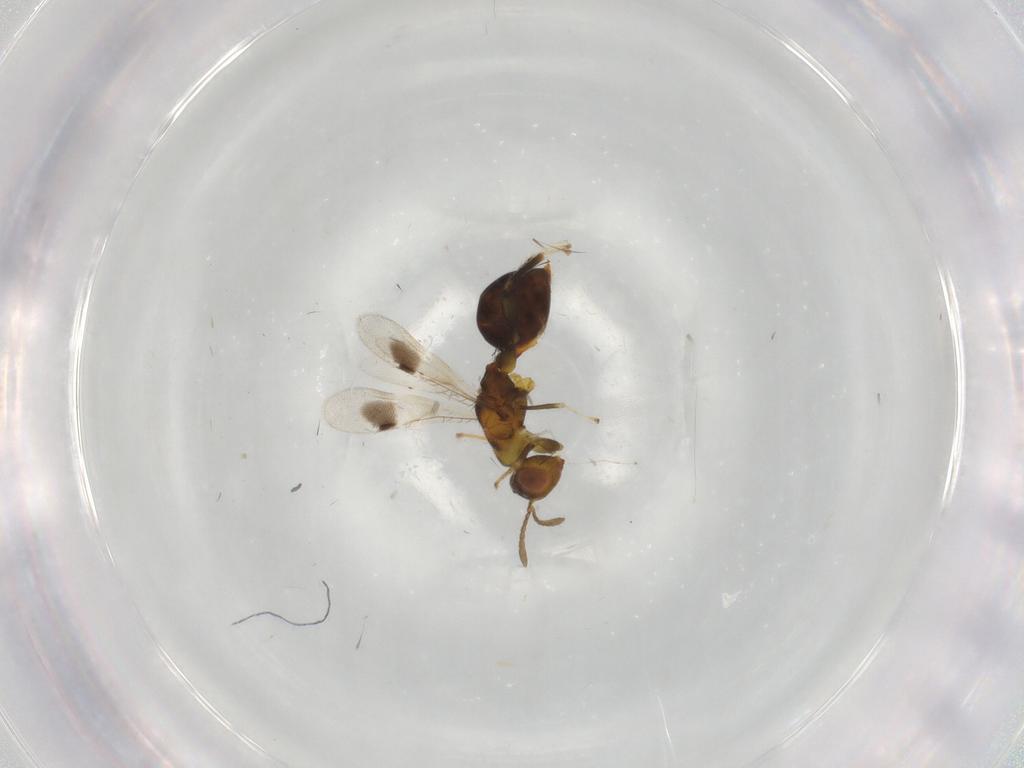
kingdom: Animalia
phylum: Arthropoda
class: Insecta
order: Hymenoptera
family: Eurytomidae
